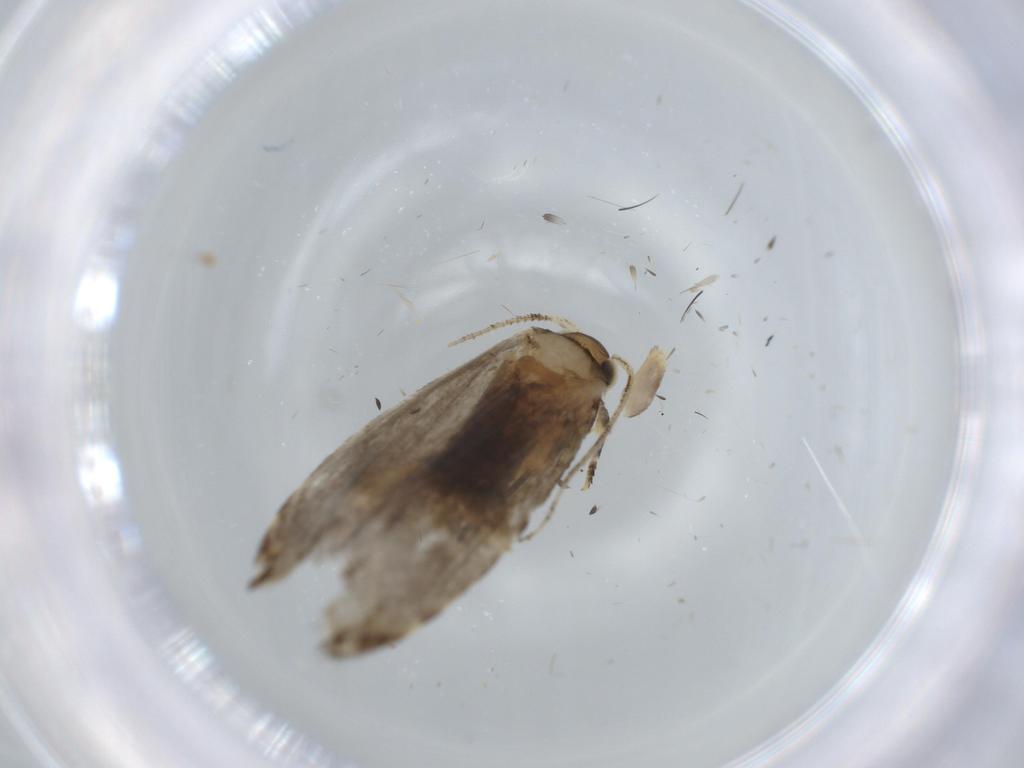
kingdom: Animalia
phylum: Arthropoda
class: Insecta
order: Lepidoptera
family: Tineidae
